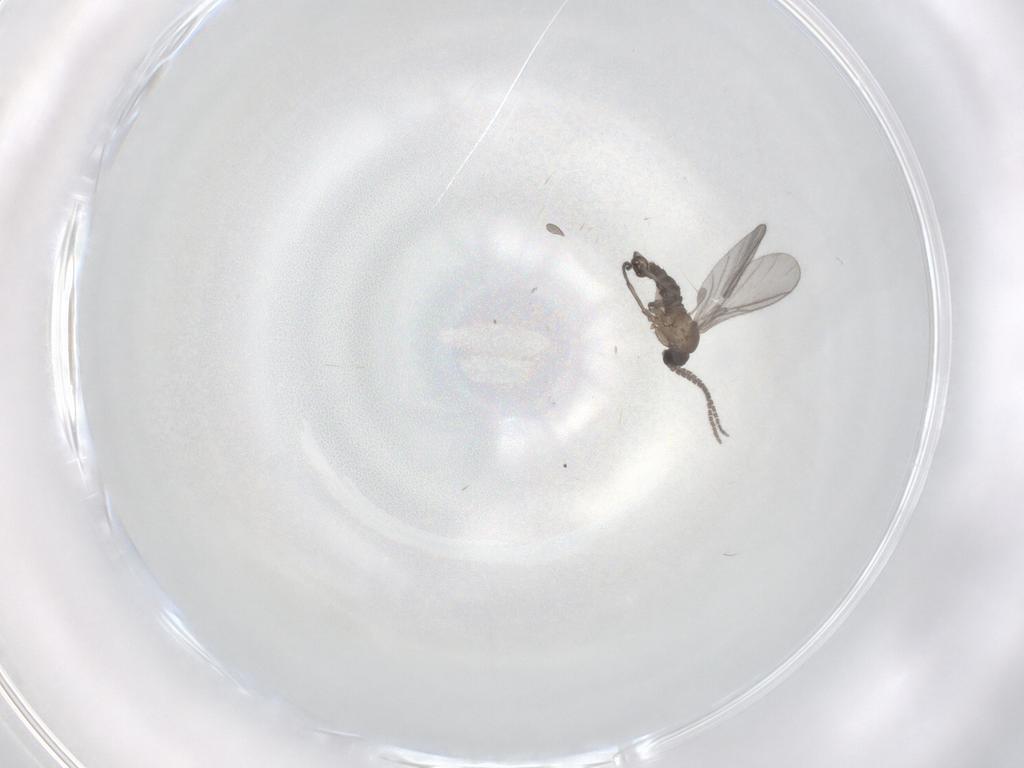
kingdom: Animalia
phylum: Arthropoda
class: Insecta
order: Diptera
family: Sciaridae
